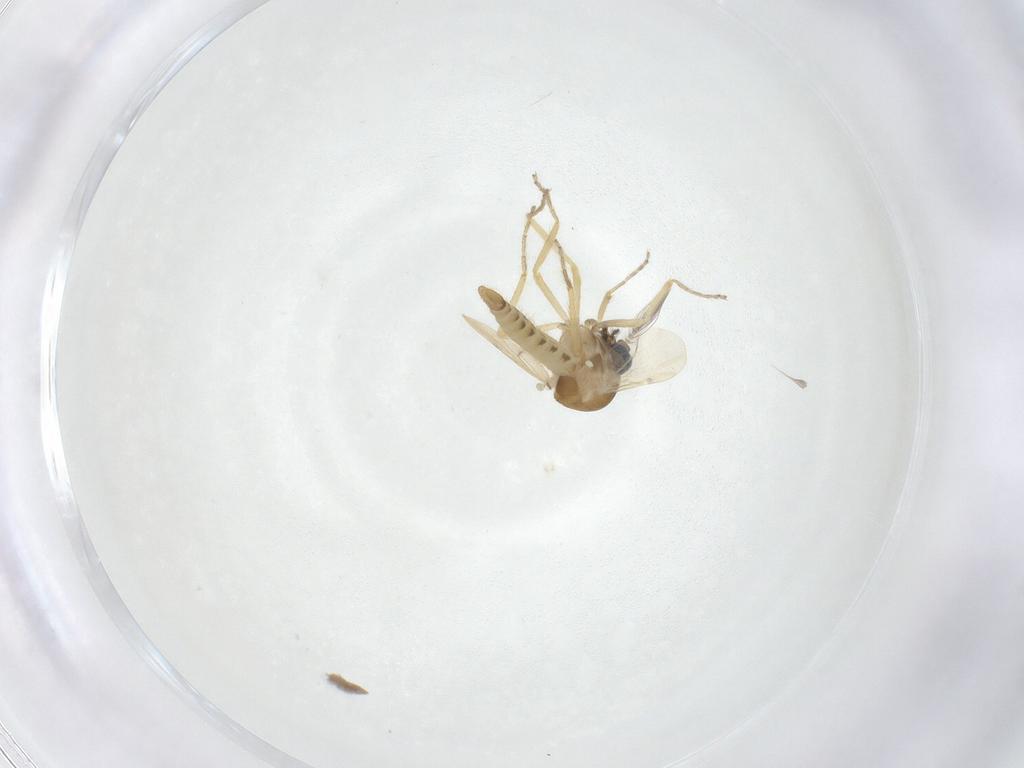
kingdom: Animalia
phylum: Arthropoda
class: Insecta
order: Diptera
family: Ceratopogonidae
